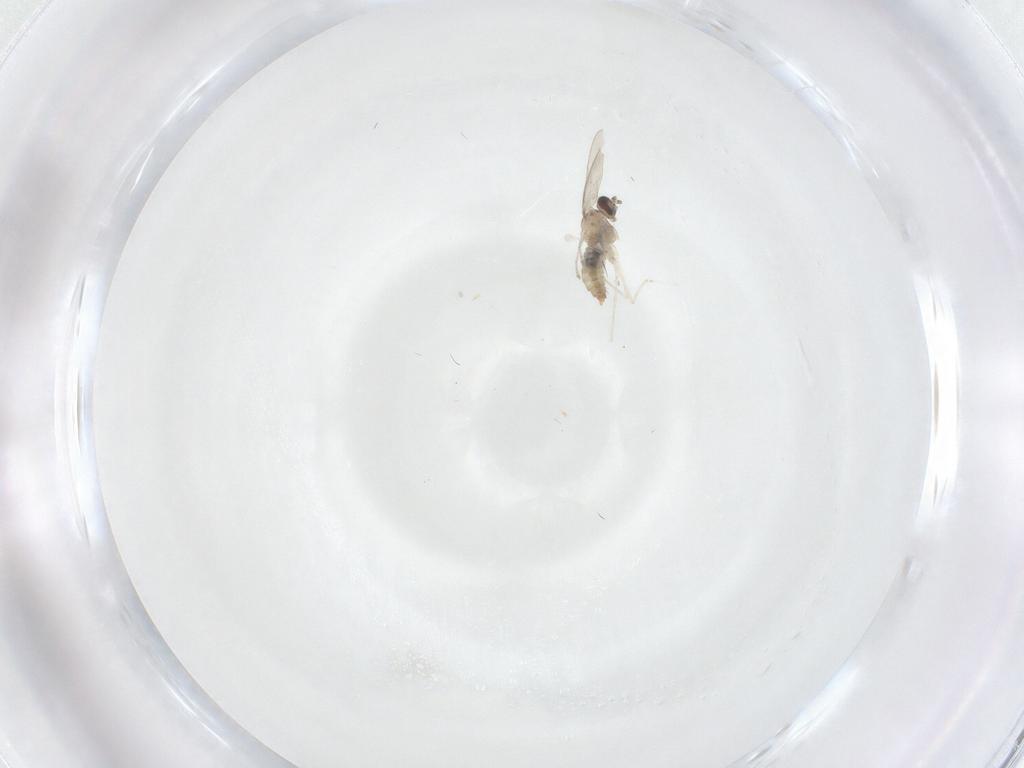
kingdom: Animalia
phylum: Arthropoda
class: Insecta
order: Diptera
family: Cecidomyiidae
